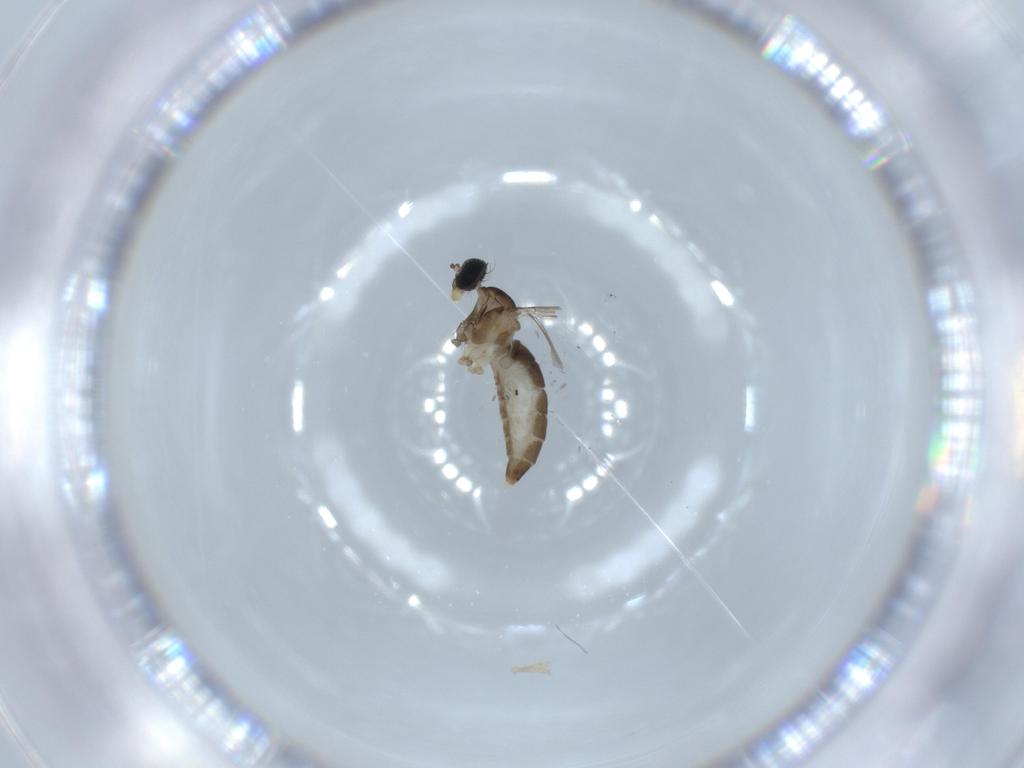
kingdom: Animalia
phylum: Arthropoda
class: Insecta
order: Diptera
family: Cecidomyiidae
